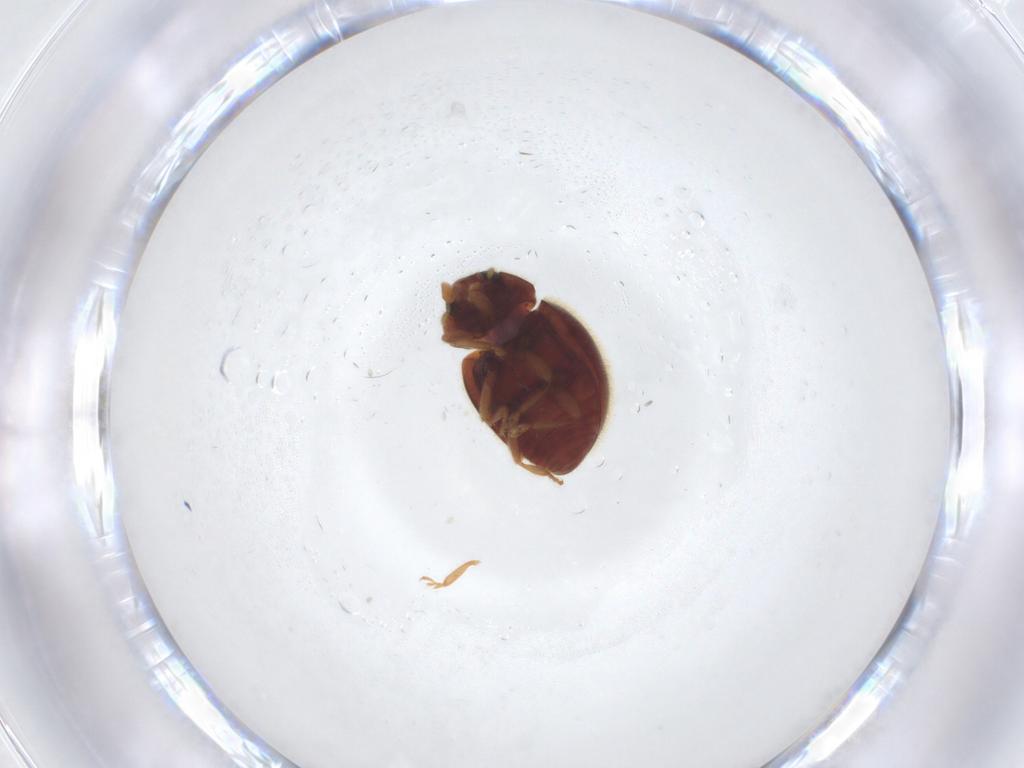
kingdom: Animalia
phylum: Arthropoda
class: Insecta
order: Coleoptera
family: Coccinellidae
